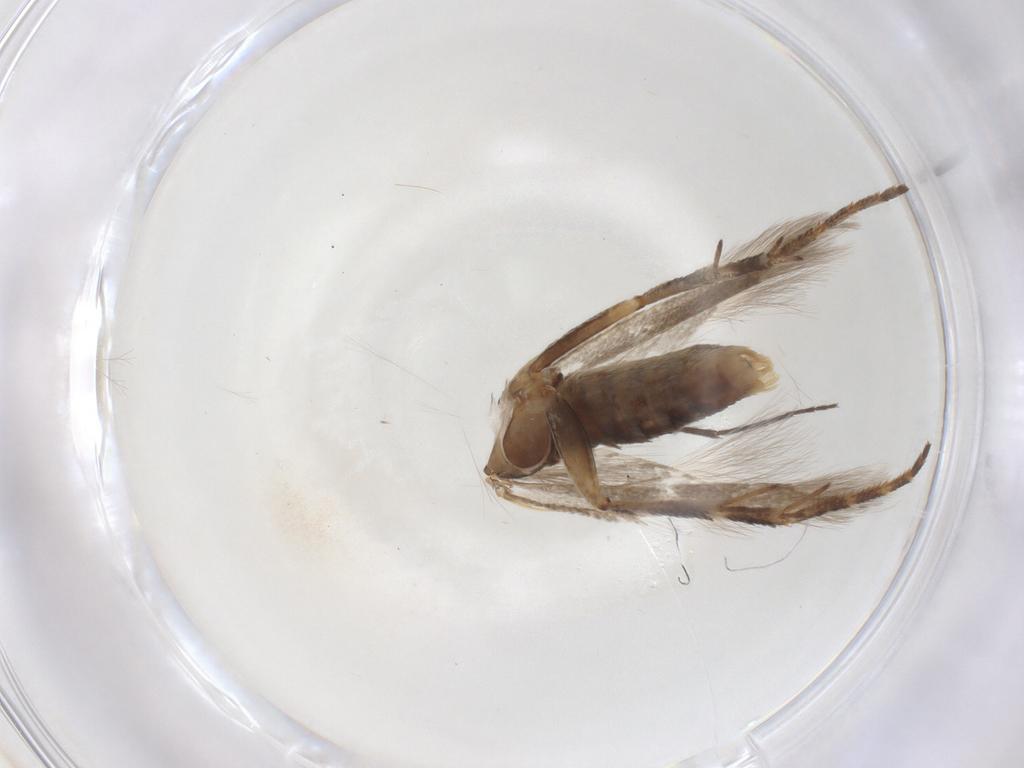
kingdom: Animalia
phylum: Arthropoda
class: Insecta
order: Lepidoptera
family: Gelechiidae
